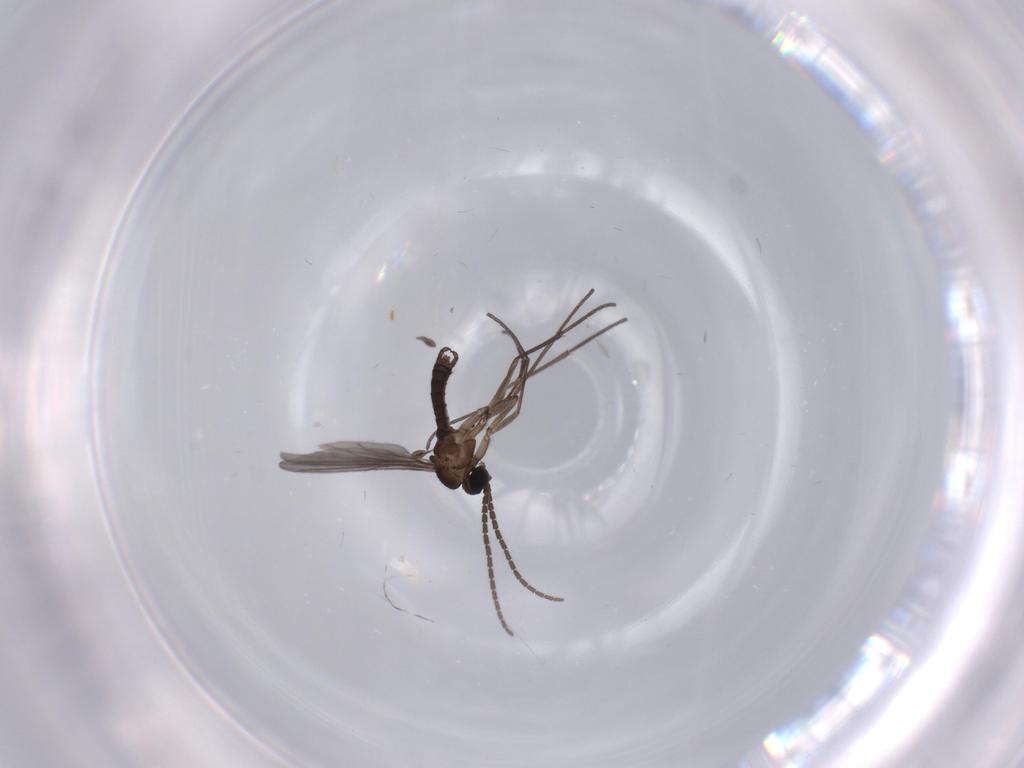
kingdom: Animalia
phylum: Arthropoda
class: Insecta
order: Diptera
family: Sciaridae
